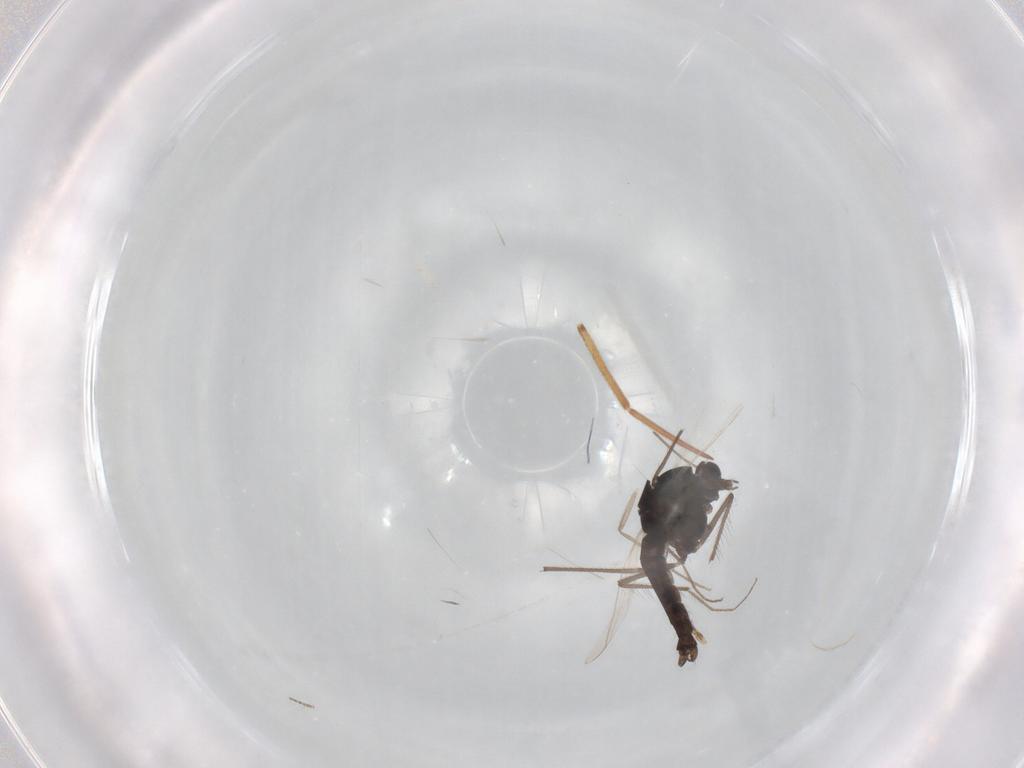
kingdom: Animalia
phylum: Arthropoda
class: Insecta
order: Diptera
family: Chironomidae
